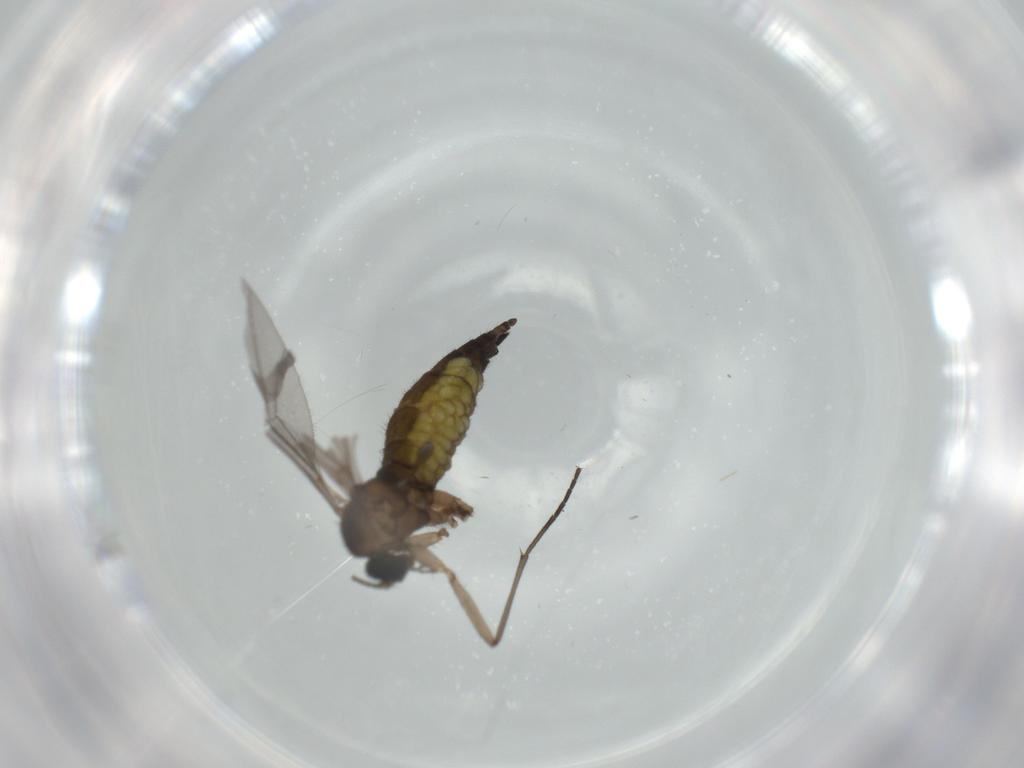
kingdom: Animalia
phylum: Arthropoda
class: Insecta
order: Diptera
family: Sciaridae
